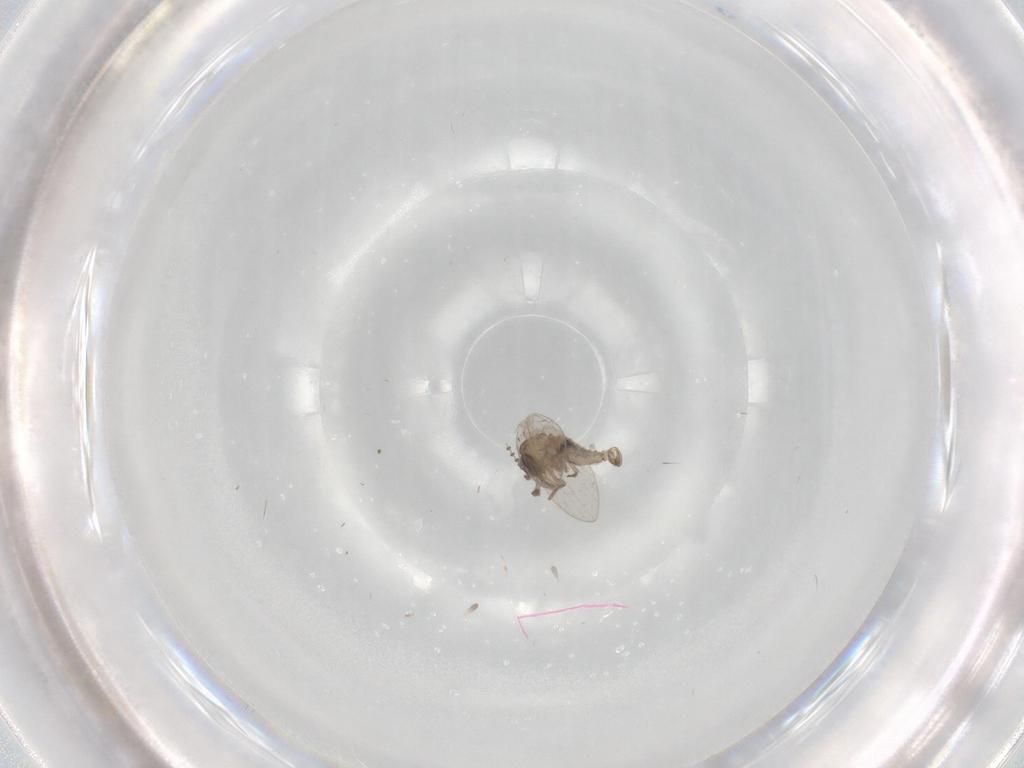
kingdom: Animalia
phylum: Arthropoda
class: Insecta
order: Diptera
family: Psychodidae
